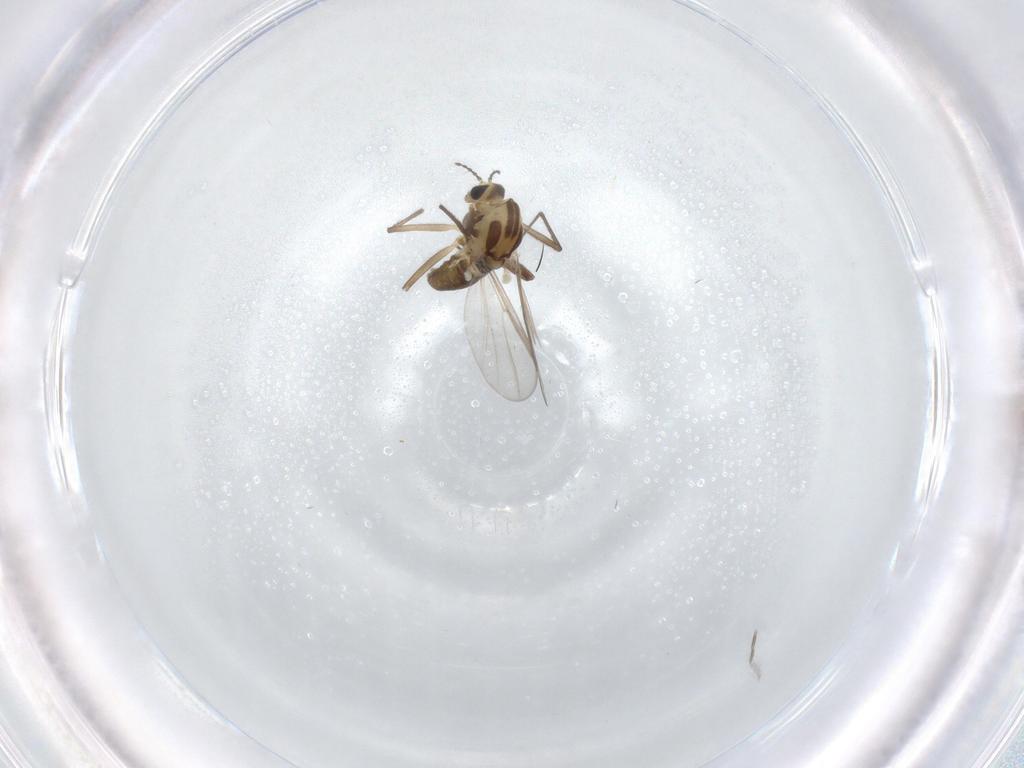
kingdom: Animalia
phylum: Arthropoda
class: Insecta
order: Diptera
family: Chironomidae
